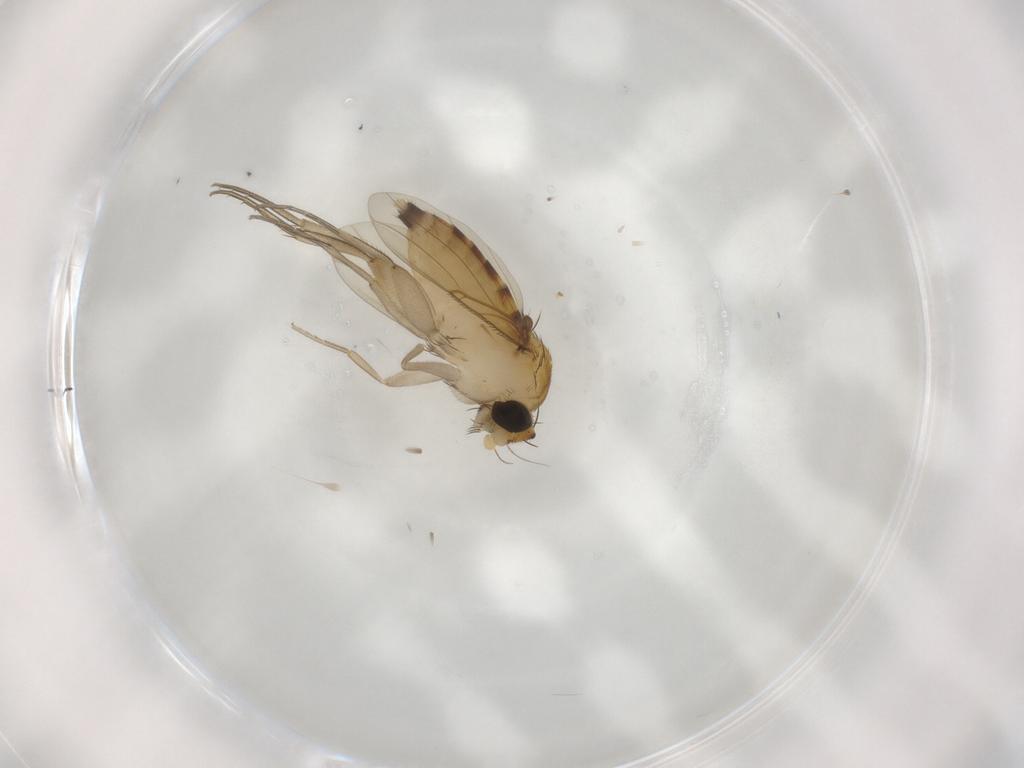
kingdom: Animalia
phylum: Arthropoda
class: Insecta
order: Diptera
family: Phoridae
